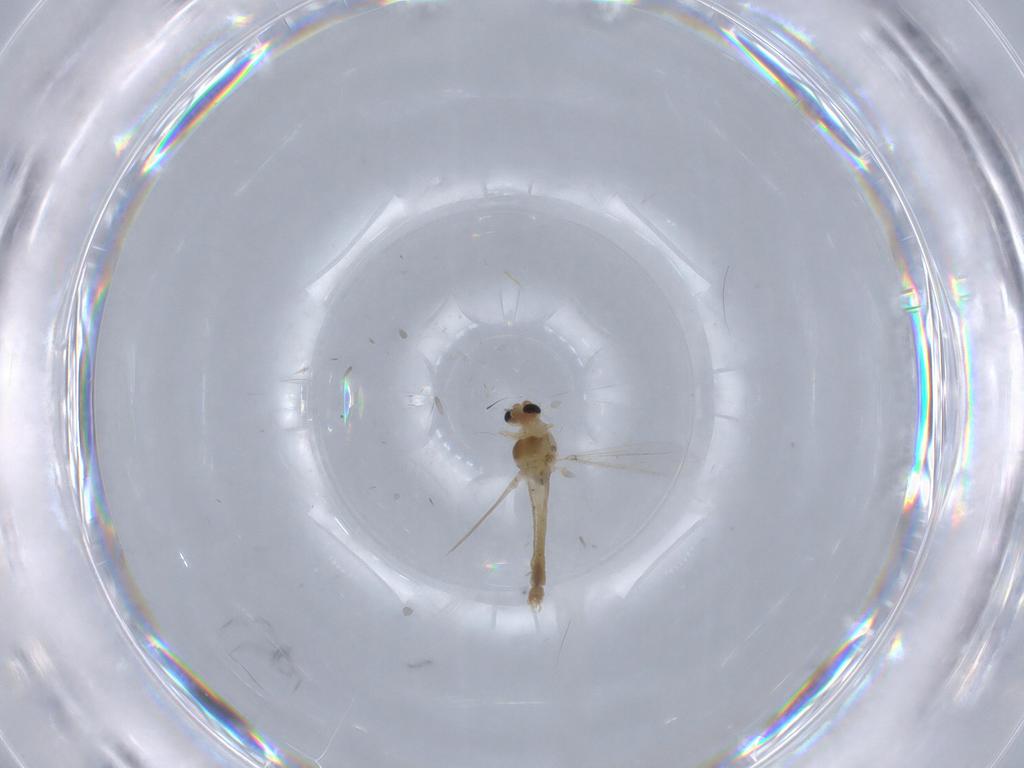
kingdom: Animalia
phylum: Arthropoda
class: Insecta
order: Diptera
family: Chironomidae
